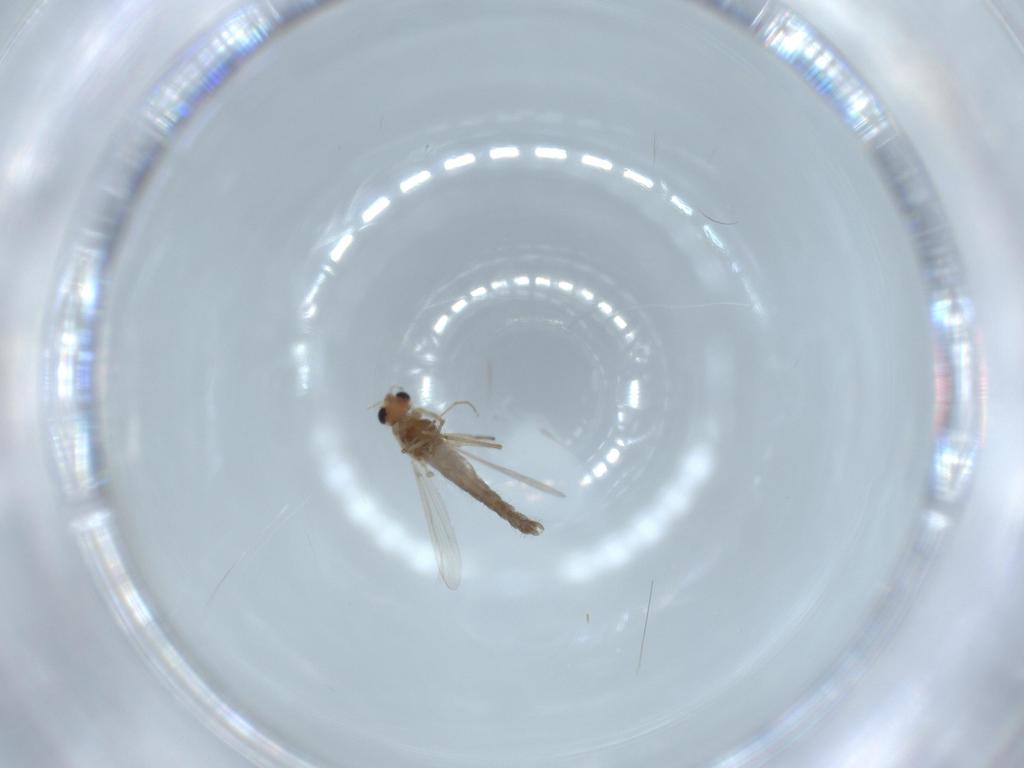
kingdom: Animalia
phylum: Arthropoda
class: Insecta
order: Diptera
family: Chironomidae
